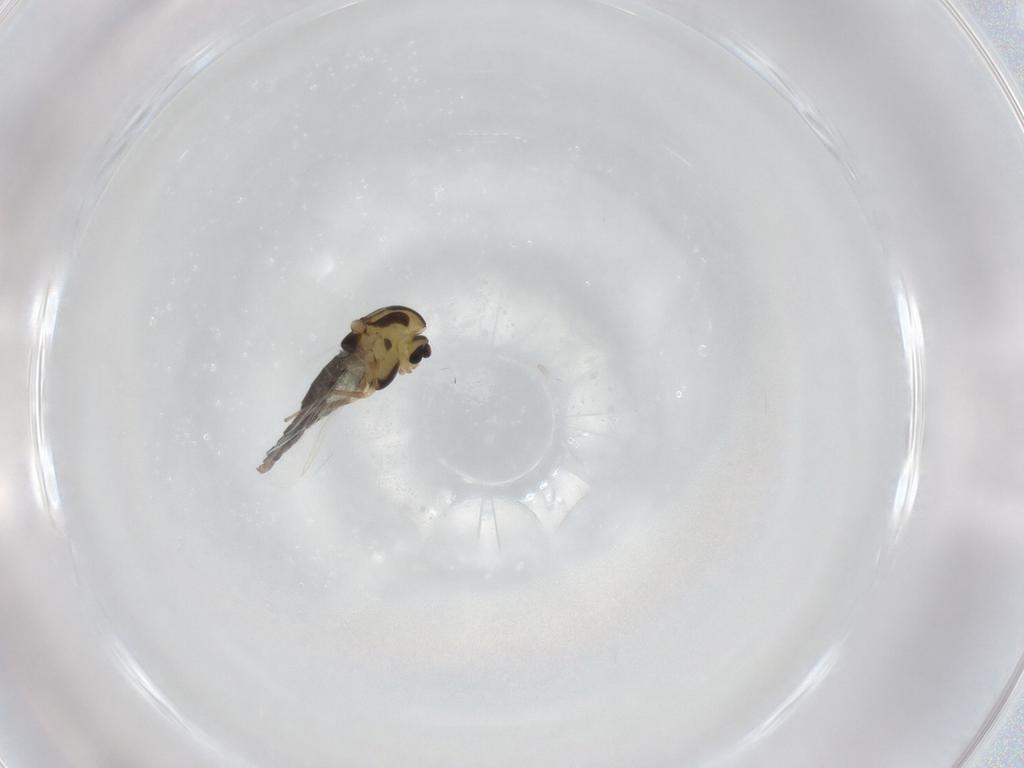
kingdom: Animalia
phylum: Arthropoda
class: Insecta
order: Diptera
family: Chironomidae
